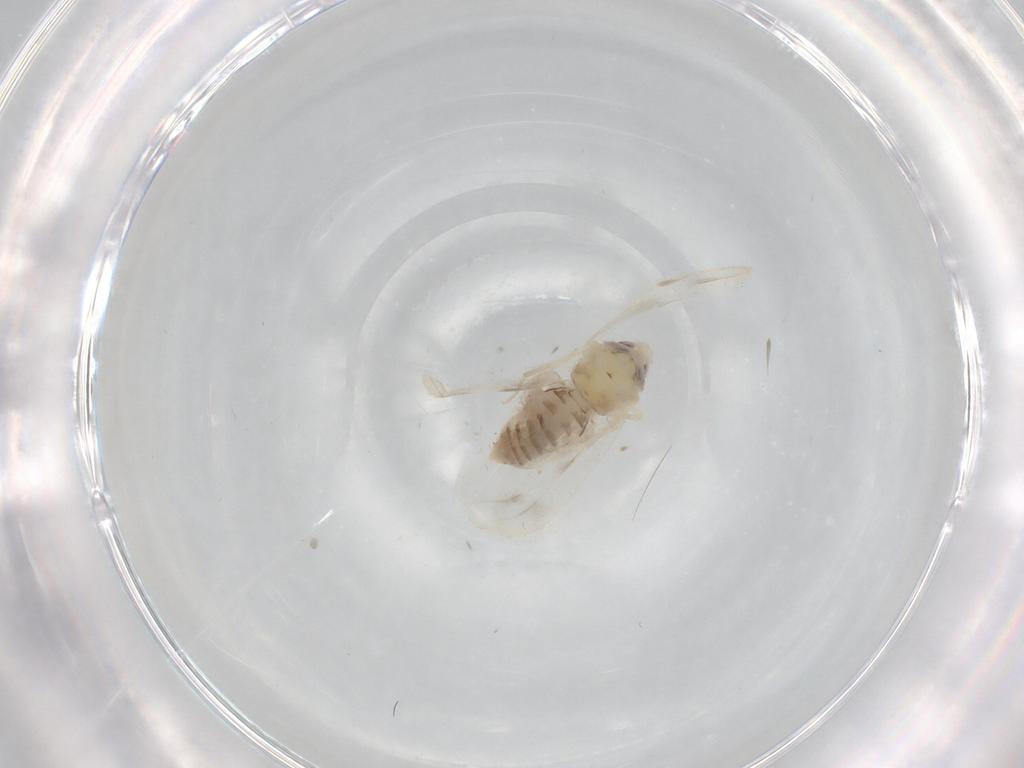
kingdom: Animalia
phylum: Arthropoda
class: Insecta
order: Hemiptera
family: Aleyrodidae
